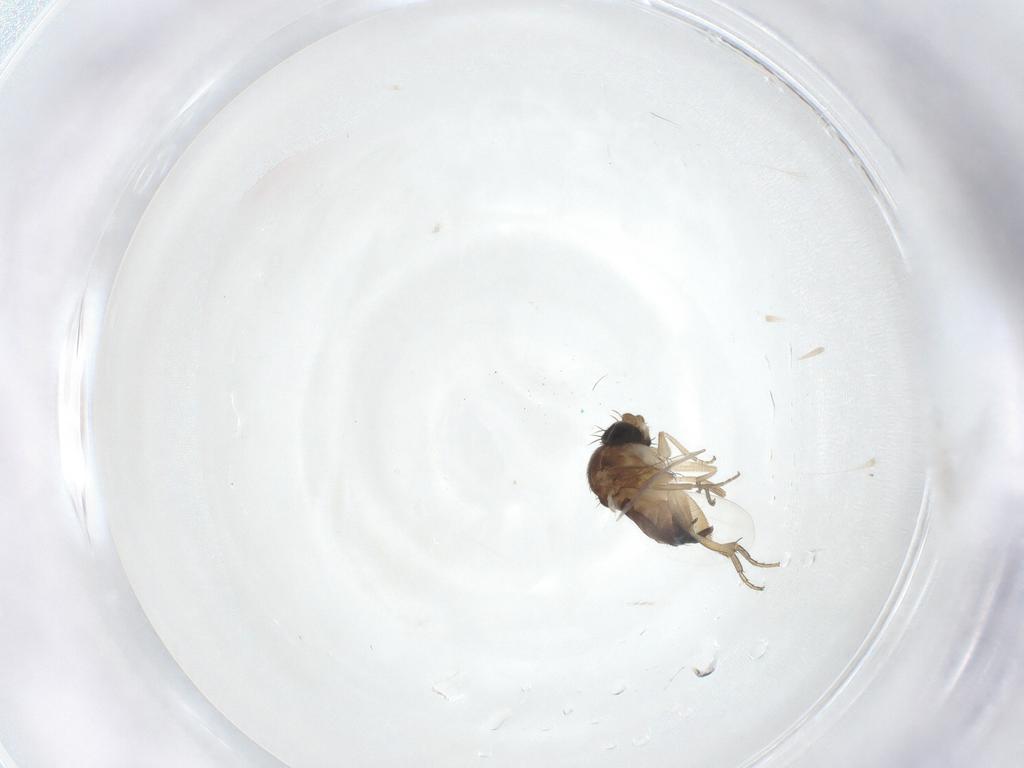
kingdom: Animalia
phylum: Arthropoda
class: Insecta
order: Diptera
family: Phoridae
